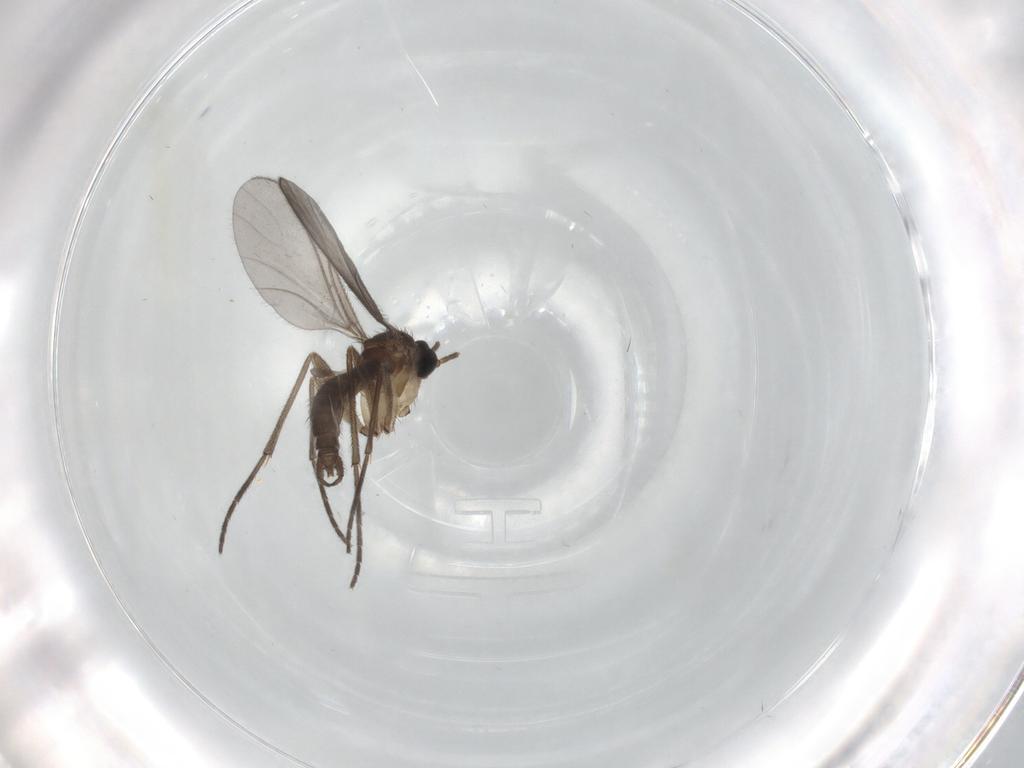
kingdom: Animalia
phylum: Arthropoda
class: Insecta
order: Diptera
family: Sciaridae
